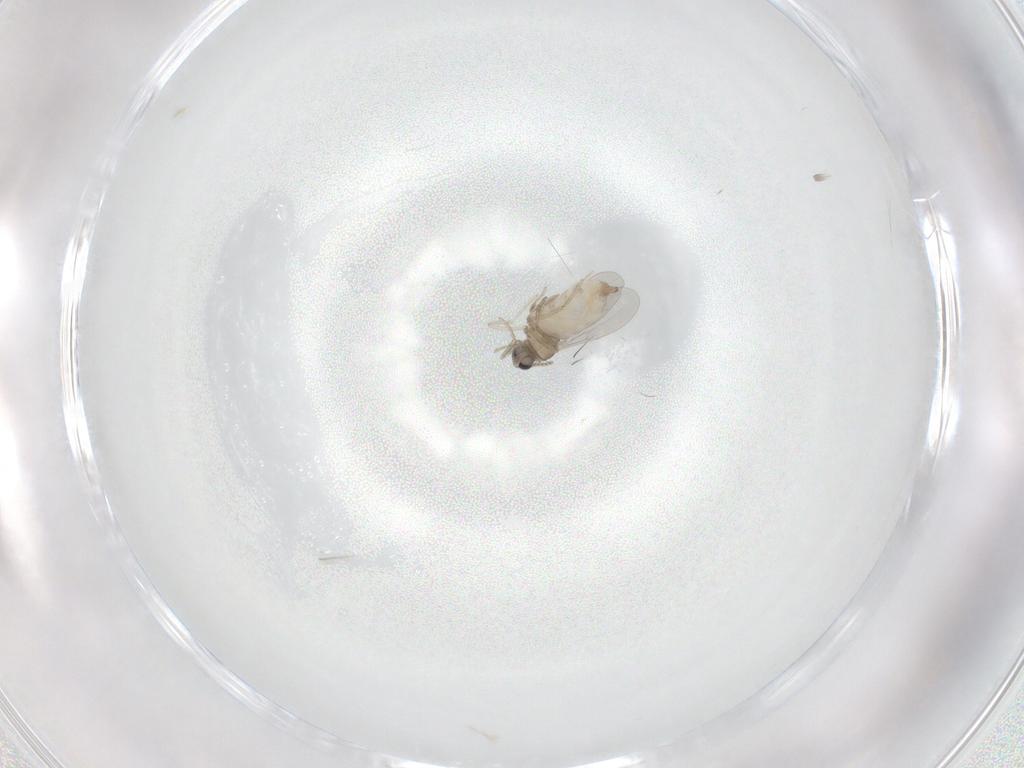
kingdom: Animalia
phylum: Arthropoda
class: Insecta
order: Diptera
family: Cecidomyiidae
